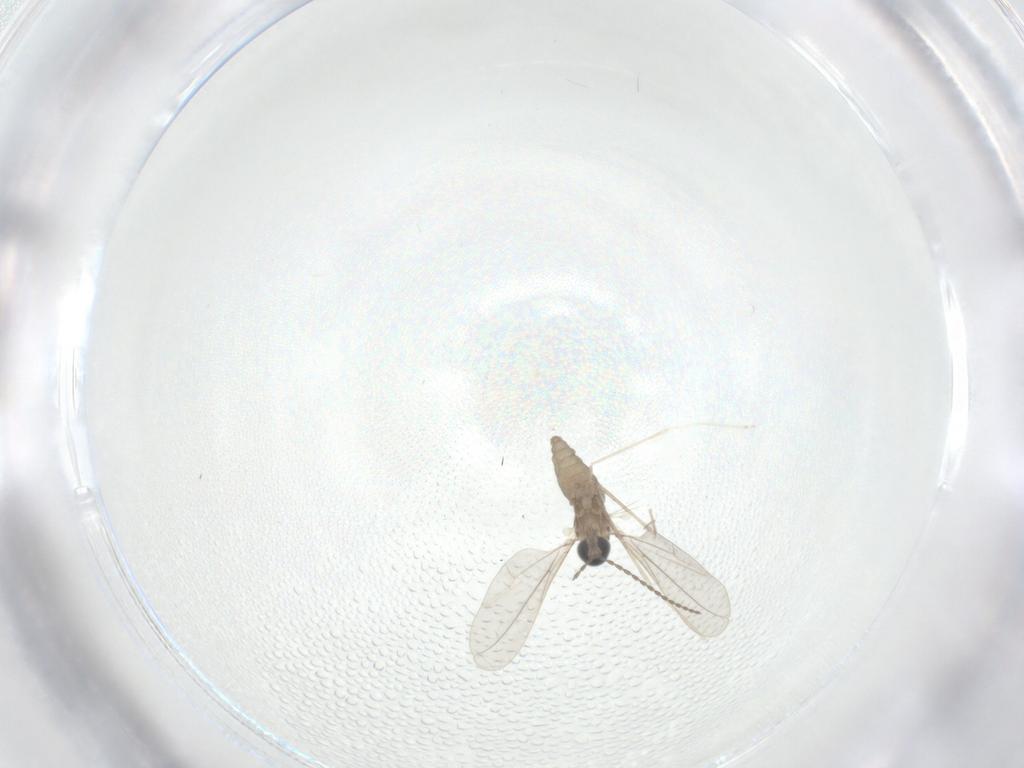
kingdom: Animalia
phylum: Arthropoda
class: Insecta
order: Diptera
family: Cecidomyiidae
